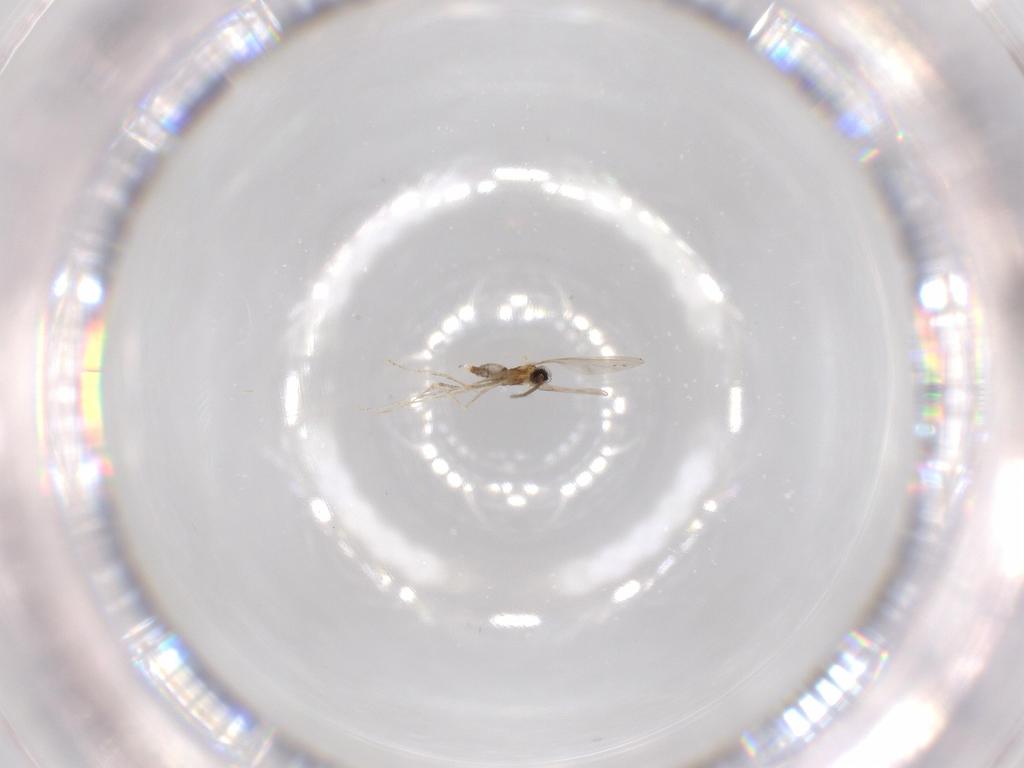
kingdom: Animalia
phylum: Arthropoda
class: Insecta
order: Diptera
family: Cecidomyiidae
